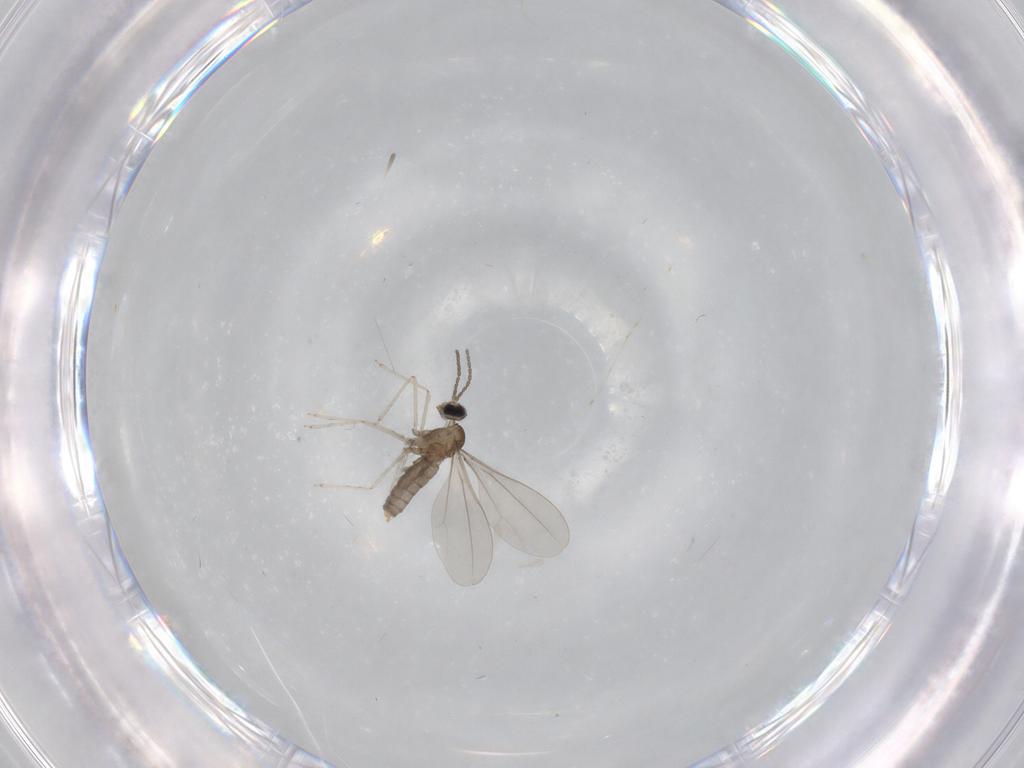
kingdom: Animalia
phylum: Arthropoda
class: Insecta
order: Diptera
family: Cecidomyiidae
